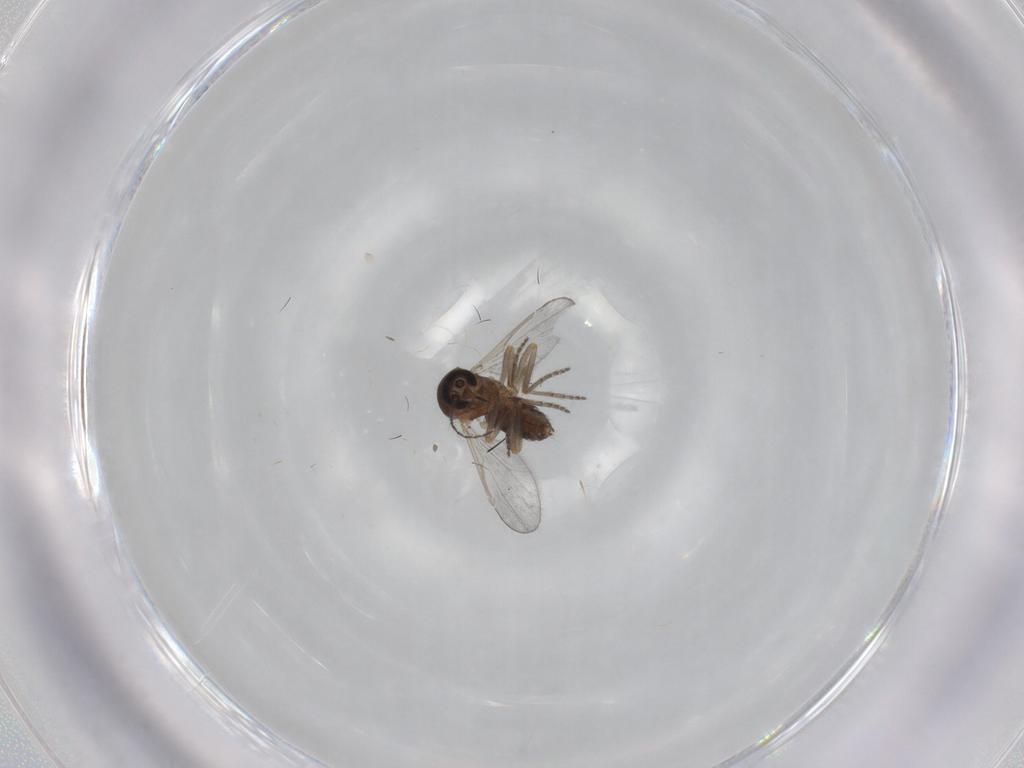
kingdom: Animalia
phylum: Arthropoda
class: Insecta
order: Diptera
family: Ceratopogonidae
